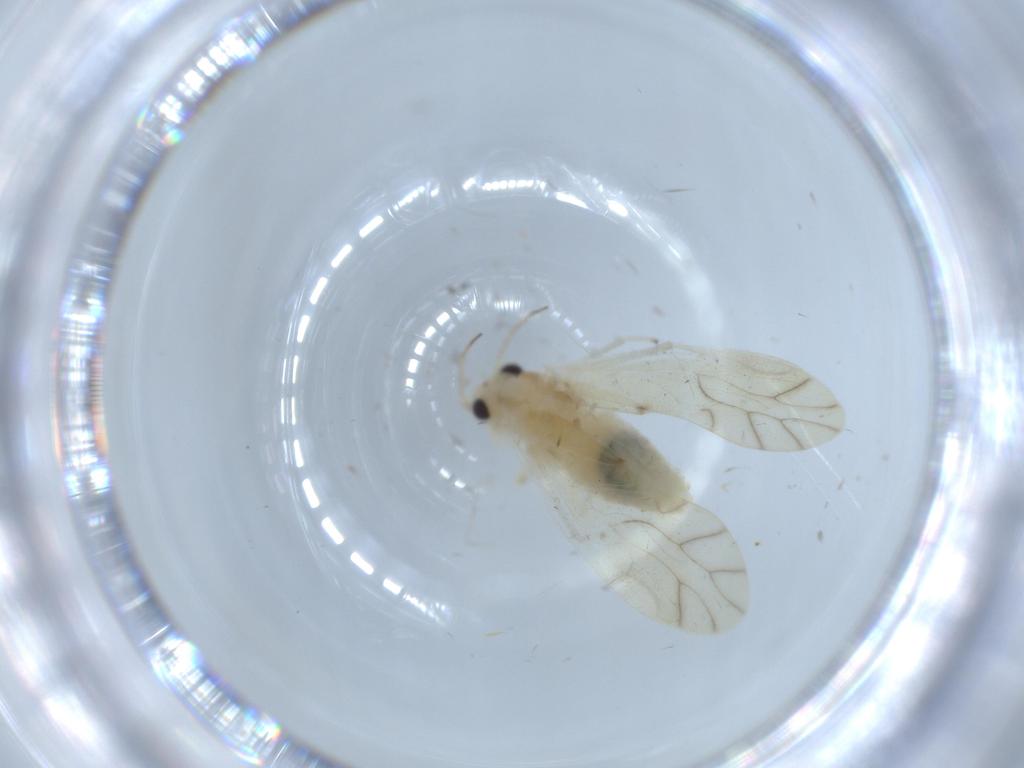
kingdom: Animalia
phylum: Arthropoda
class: Insecta
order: Psocodea
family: Caeciliusidae
